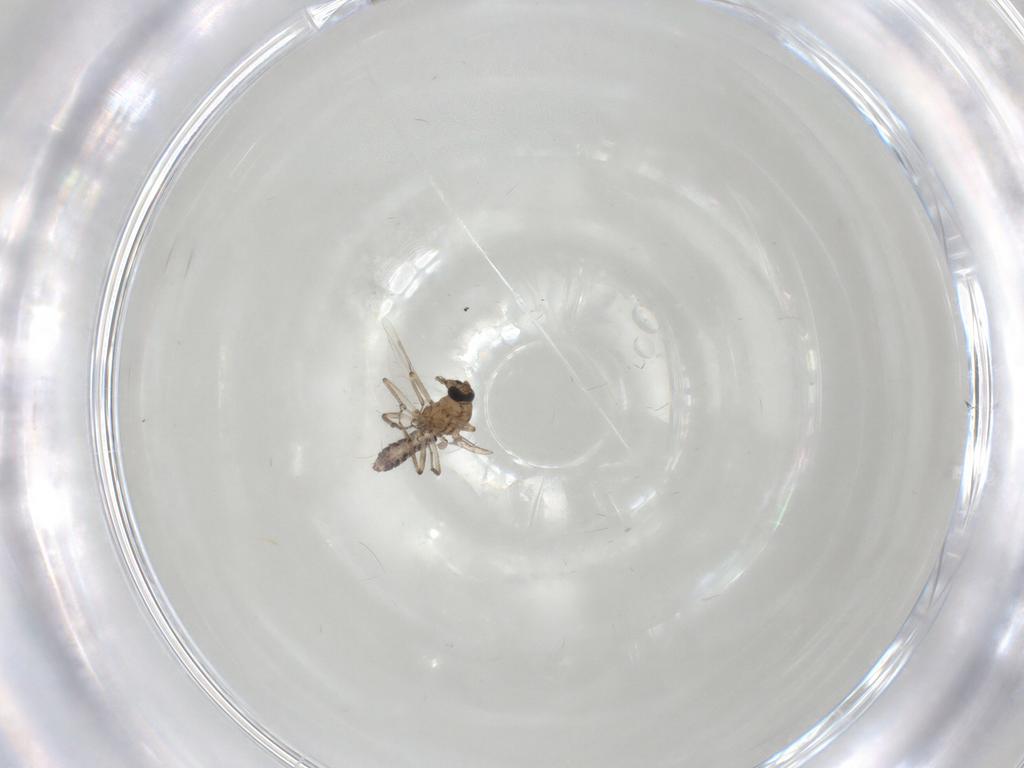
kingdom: Animalia
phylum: Arthropoda
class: Insecta
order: Diptera
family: Ceratopogonidae
